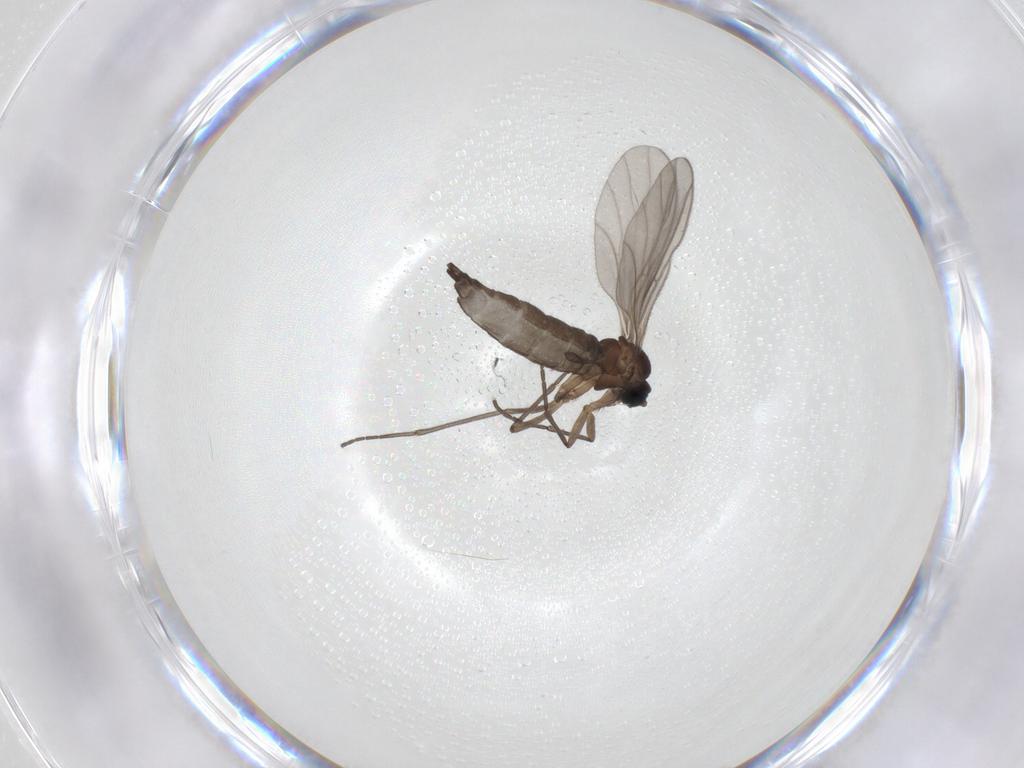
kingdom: Animalia
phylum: Arthropoda
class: Insecta
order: Diptera
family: Sciaridae
